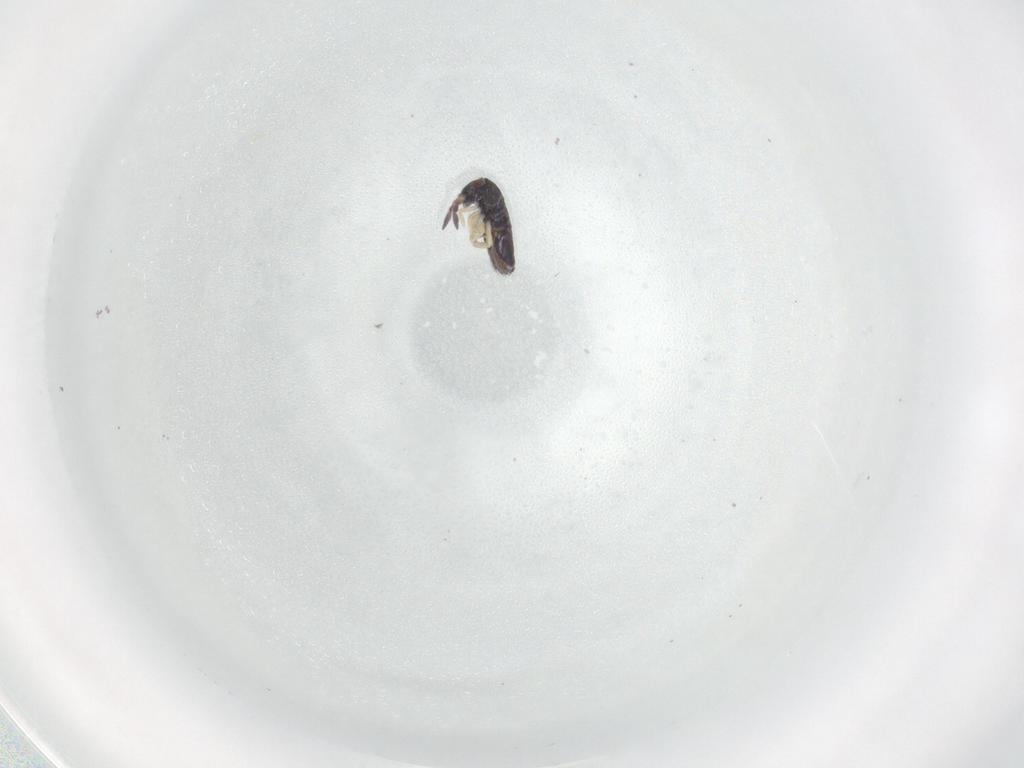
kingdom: Animalia
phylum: Arthropoda
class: Collembola
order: Entomobryomorpha
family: Entomobryidae
